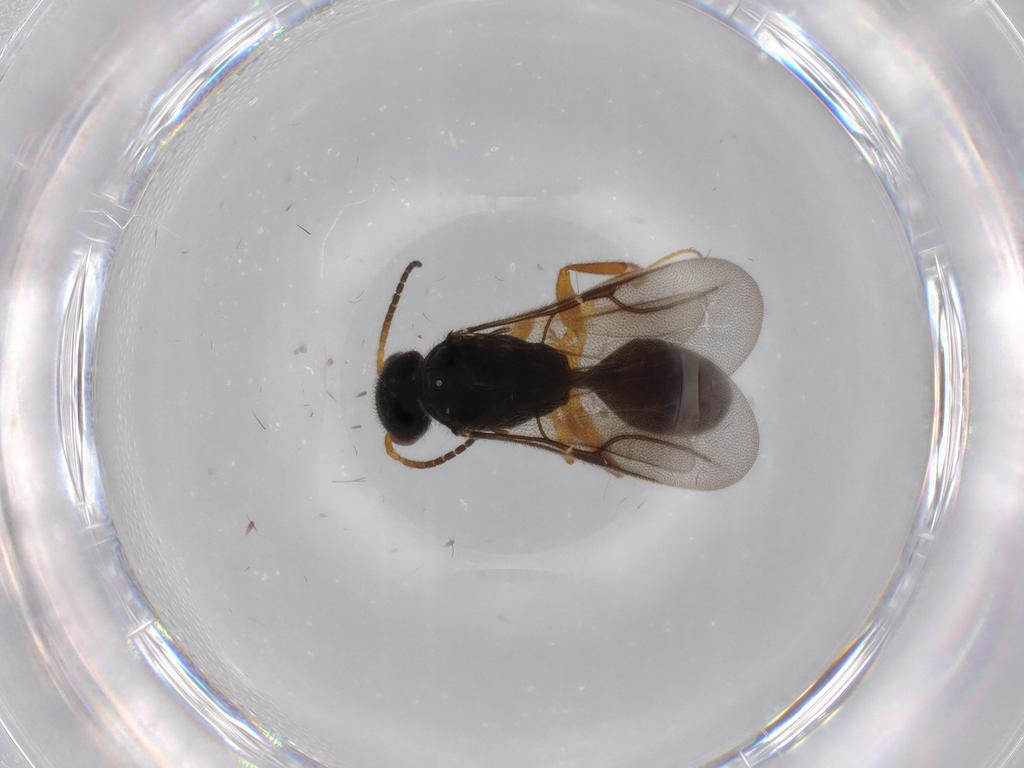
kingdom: Animalia
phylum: Arthropoda
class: Insecta
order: Hymenoptera
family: Bethylidae
